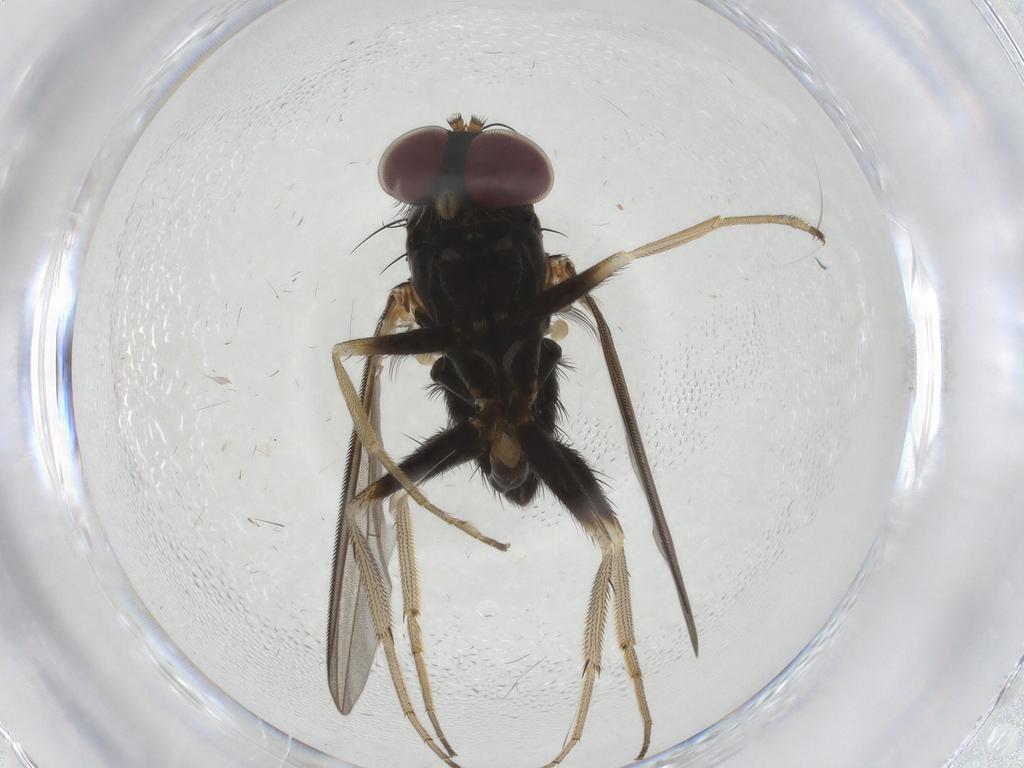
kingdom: Animalia
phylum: Arthropoda
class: Insecta
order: Diptera
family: Dolichopodidae
